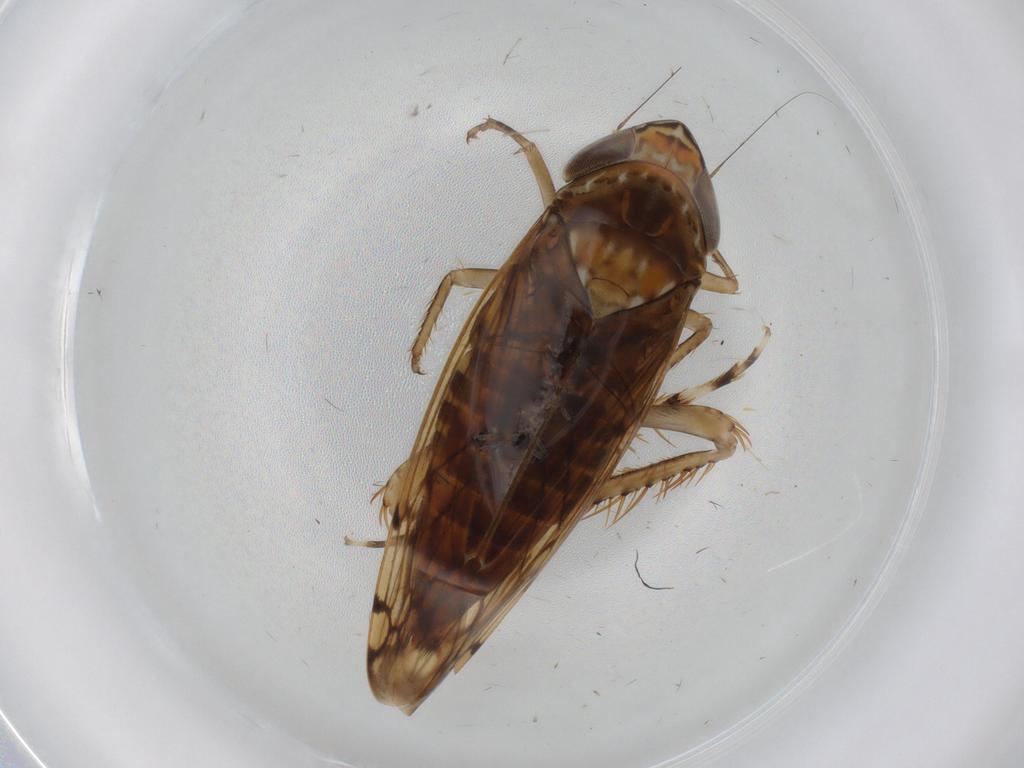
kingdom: Animalia
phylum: Arthropoda
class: Insecta
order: Hemiptera
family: Cicadellidae
